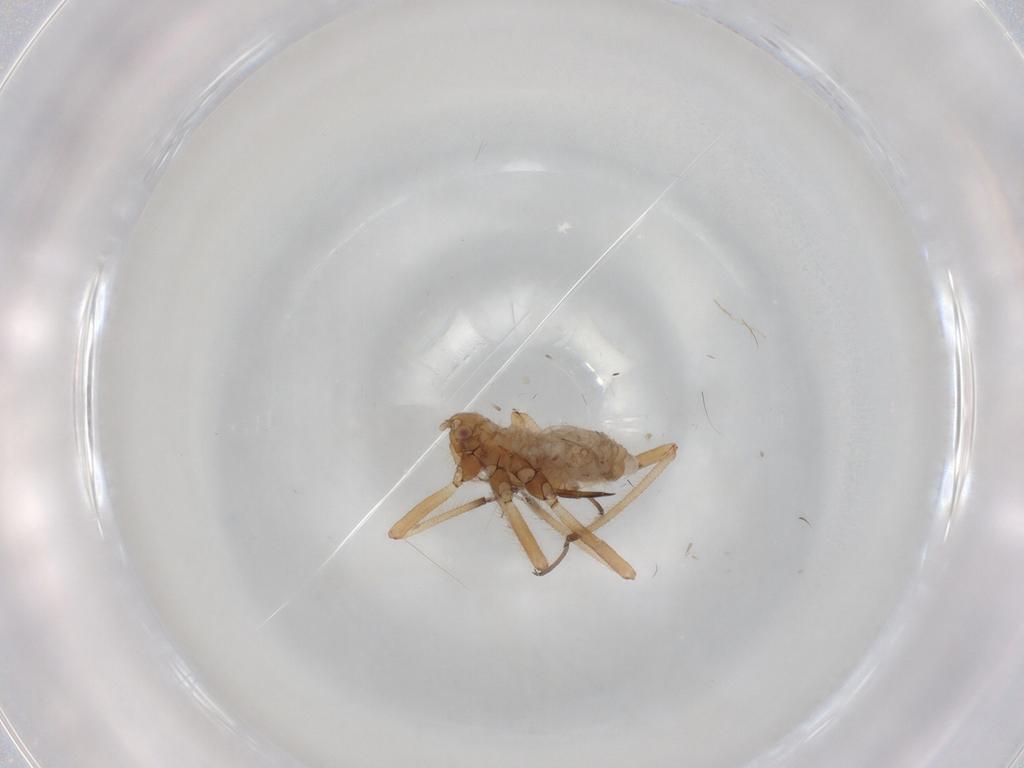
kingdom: Animalia
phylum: Arthropoda
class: Insecta
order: Hemiptera
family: Aphididae
